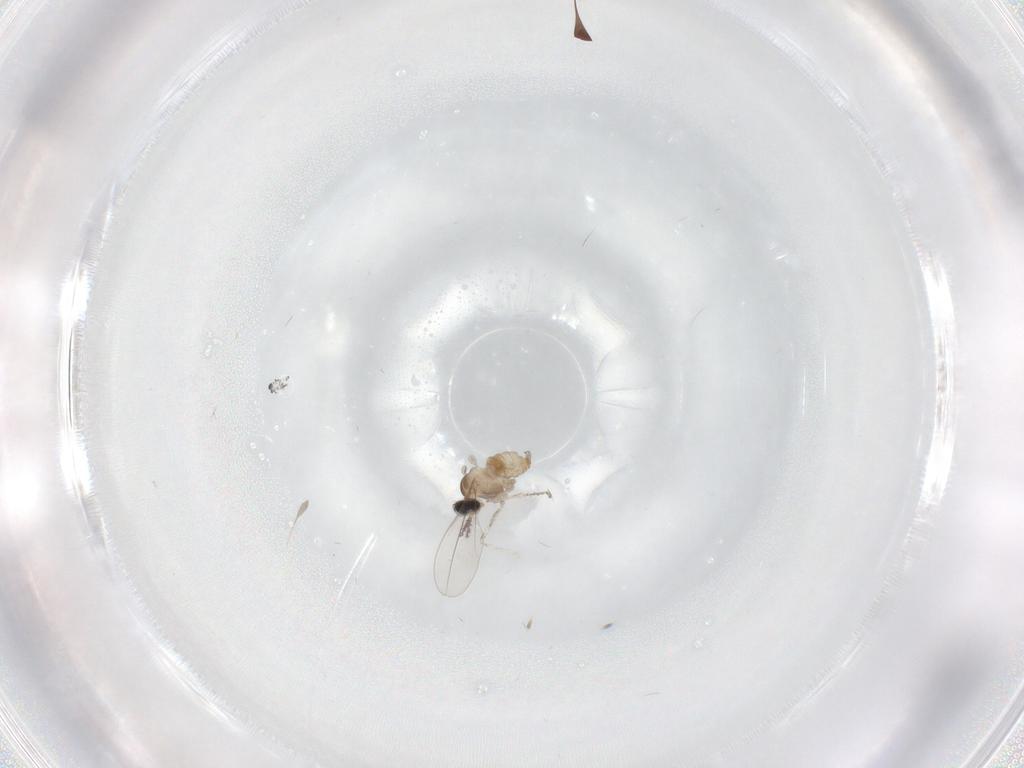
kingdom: Animalia
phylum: Arthropoda
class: Insecta
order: Diptera
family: Cecidomyiidae
